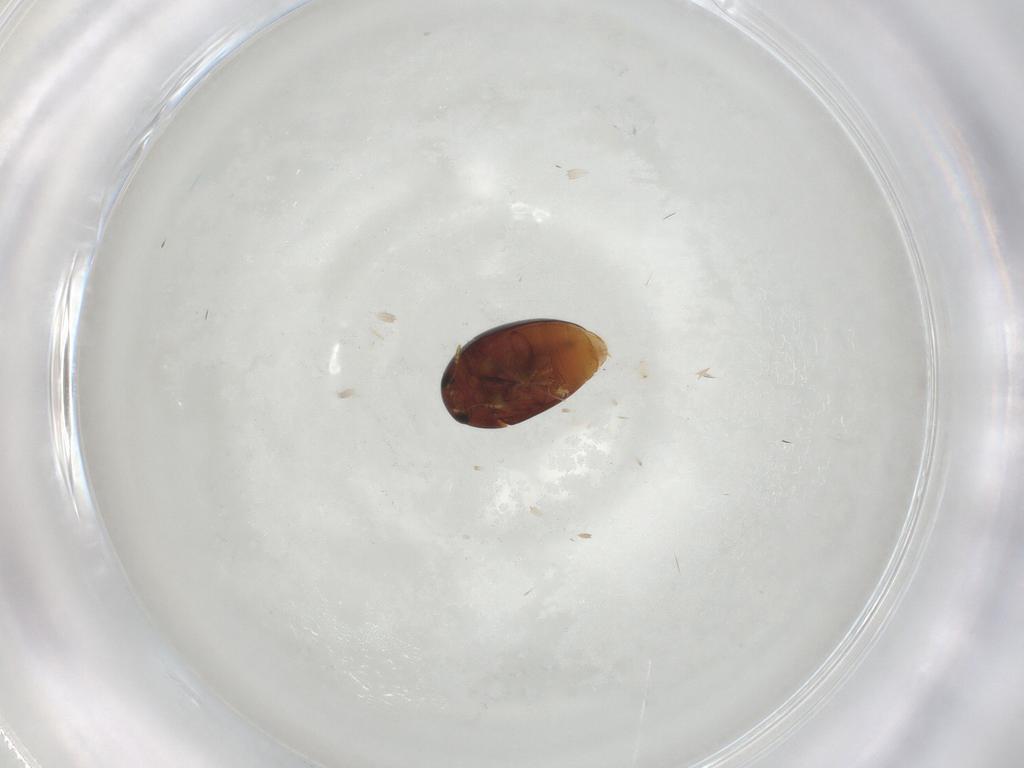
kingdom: Animalia
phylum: Arthropoda
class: Insecta
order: Coleoptera
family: Phalacridae
